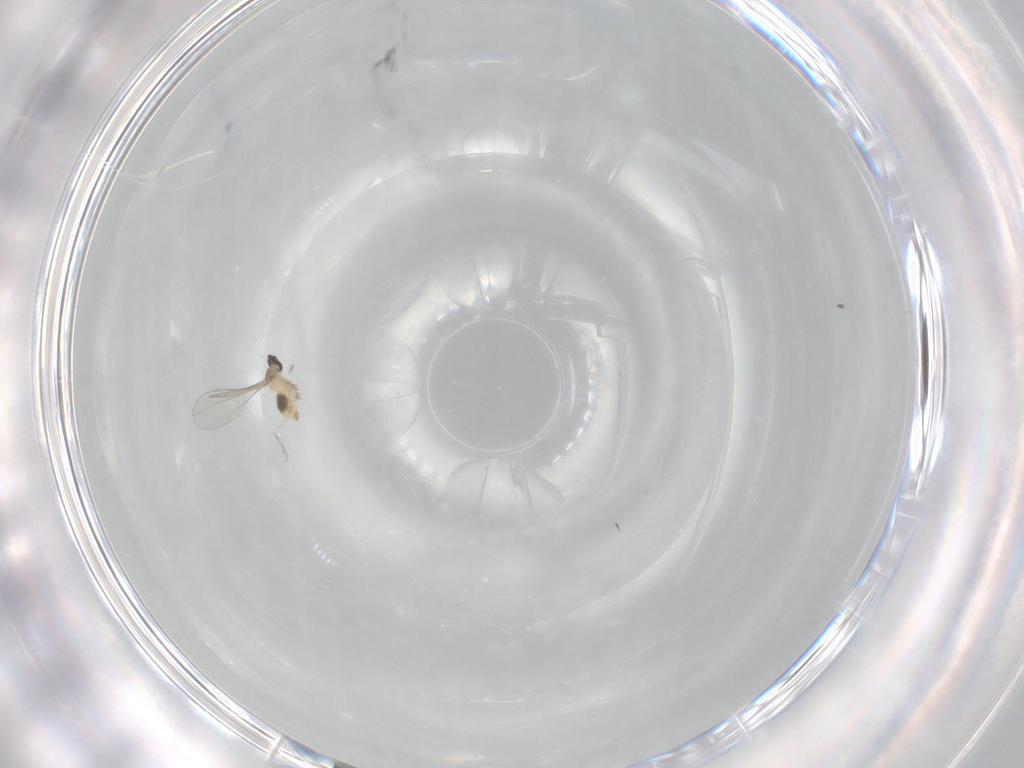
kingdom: Animalia
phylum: Arthropoda
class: Insecta
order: Diptera
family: Cecidomyiidae
